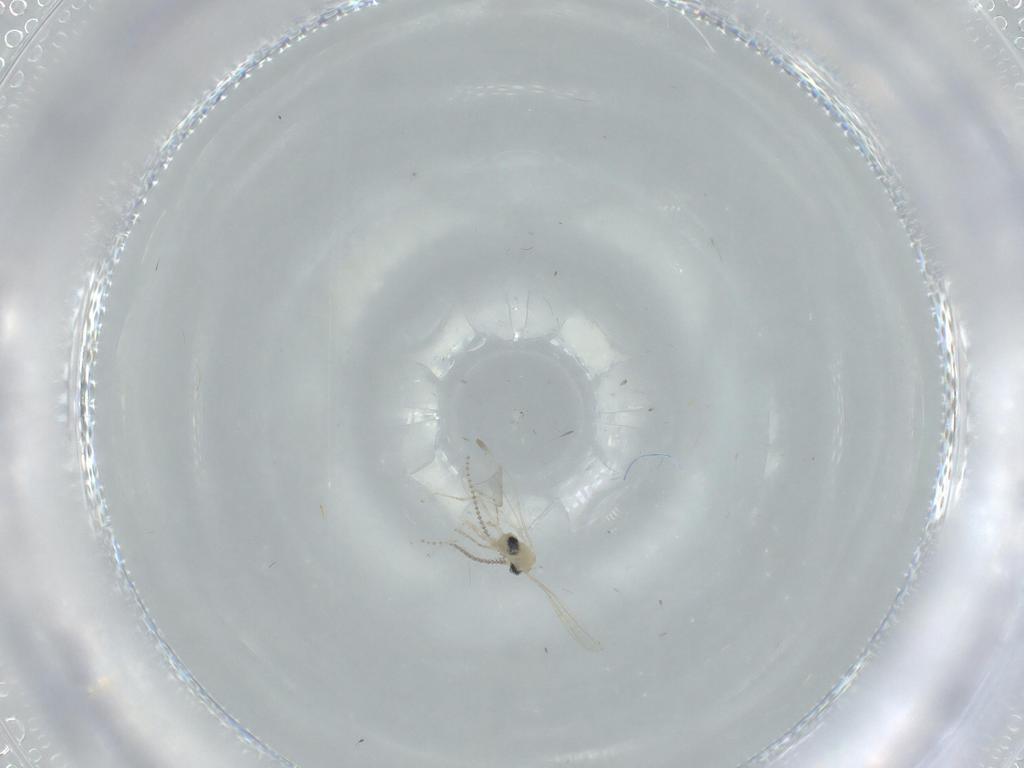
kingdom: Animalia
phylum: Arthropoda
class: Insecta
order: Diptera
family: Cecidomyiidae
